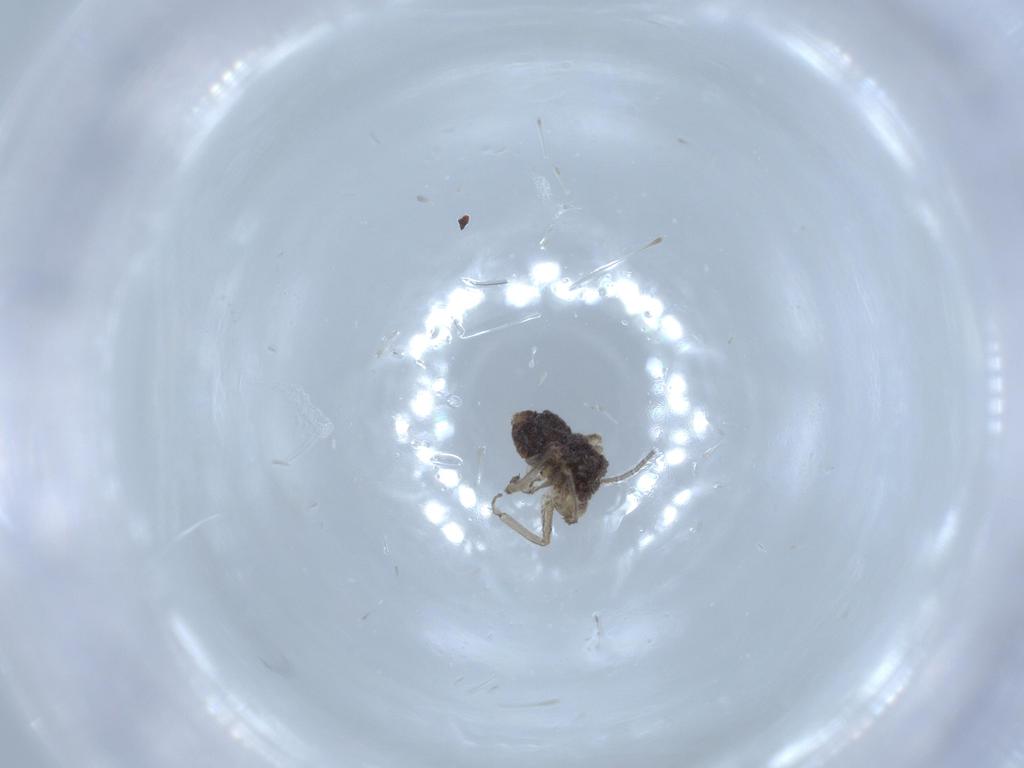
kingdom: Animalia
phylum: Arthropoda
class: Insecta
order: Psocodea
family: Myopsocidae
